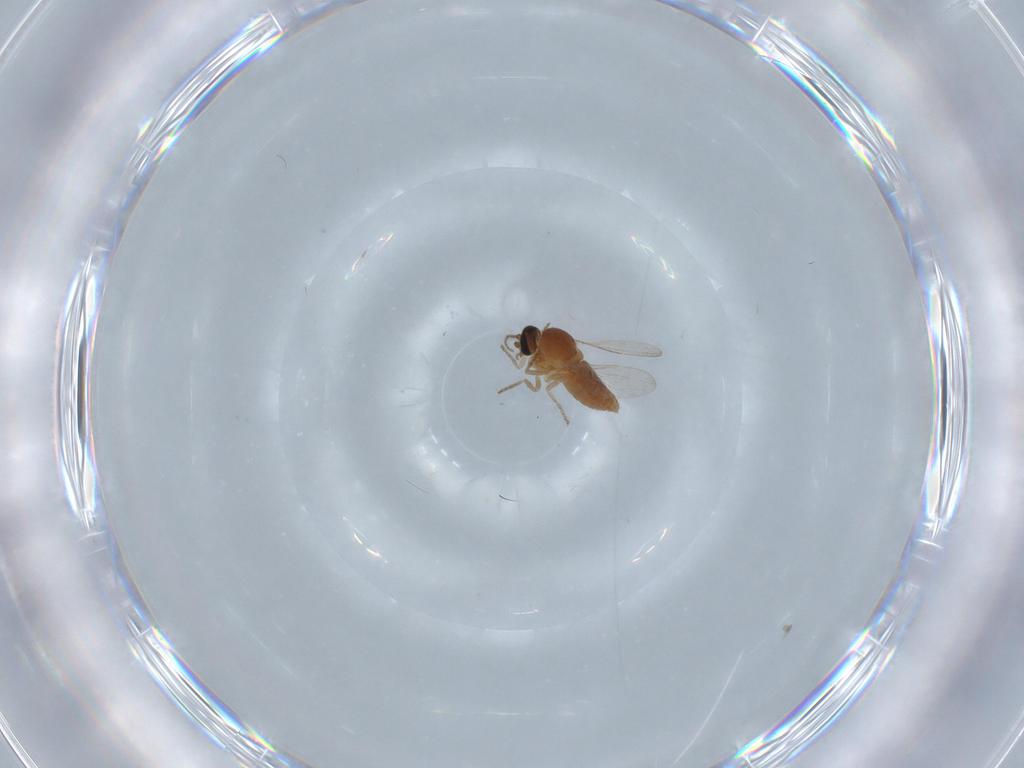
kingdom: Animalia
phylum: Arthropoda
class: Insecta
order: Diptera
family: Ceratopogonidae
